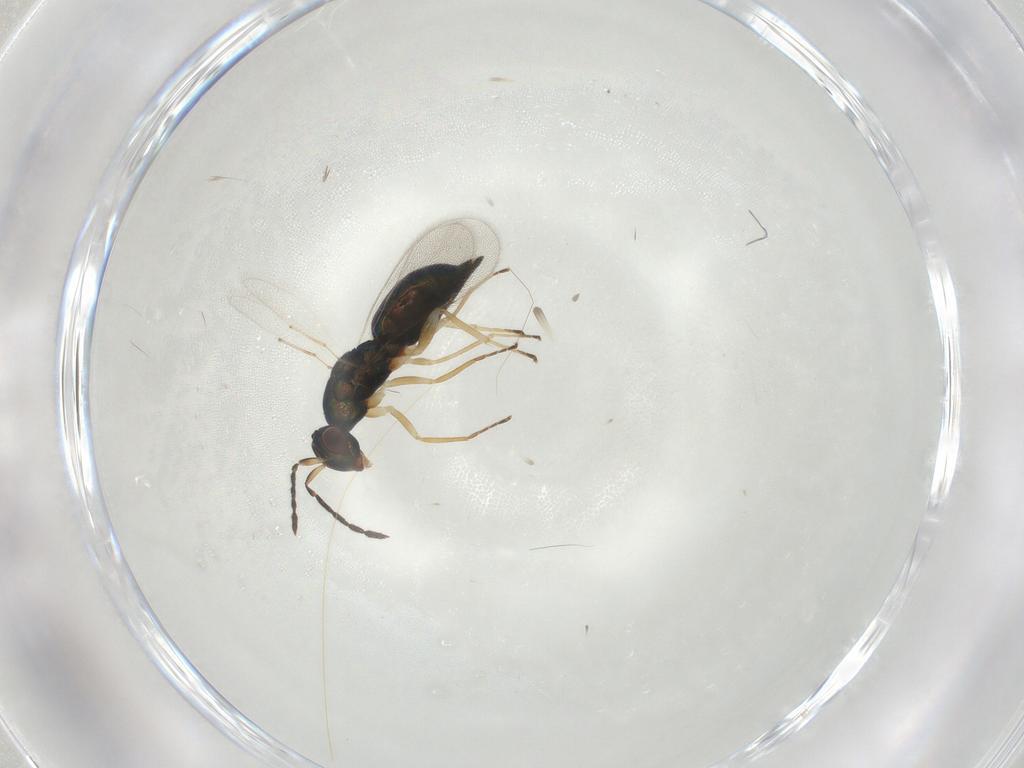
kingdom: Animalia
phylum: Arthropoda
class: Insecta
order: Hymenoptera
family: Eulophidae
